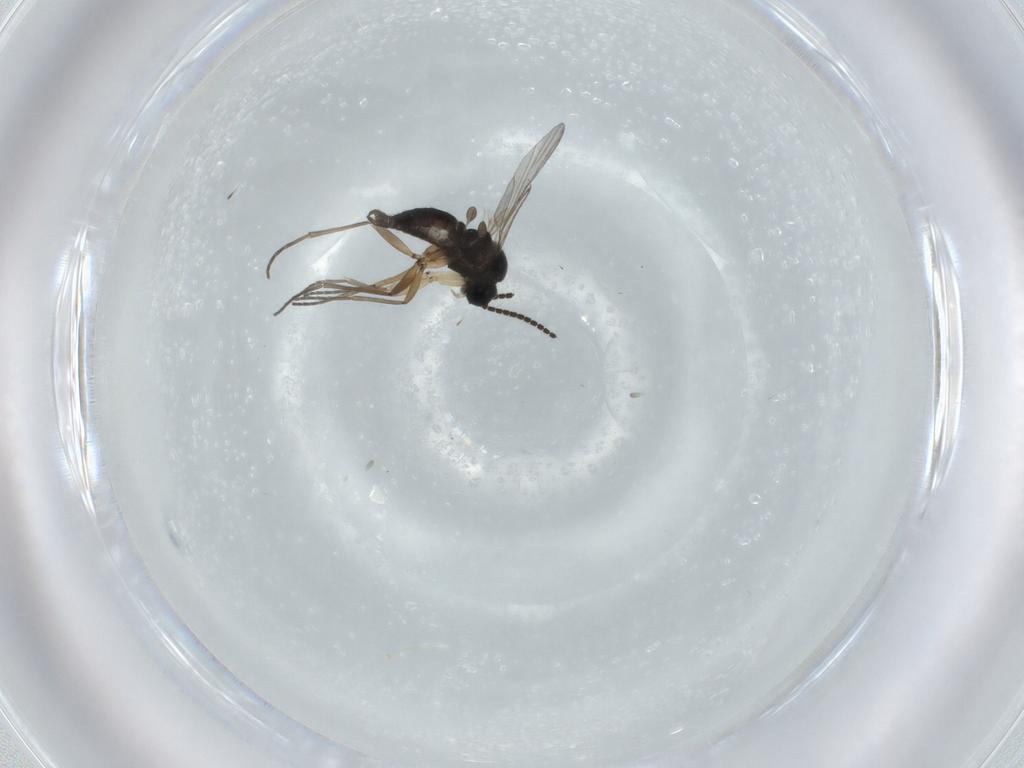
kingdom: Animalia
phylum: Arthropoda
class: Insecta
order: Diptera
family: Sciaridae
